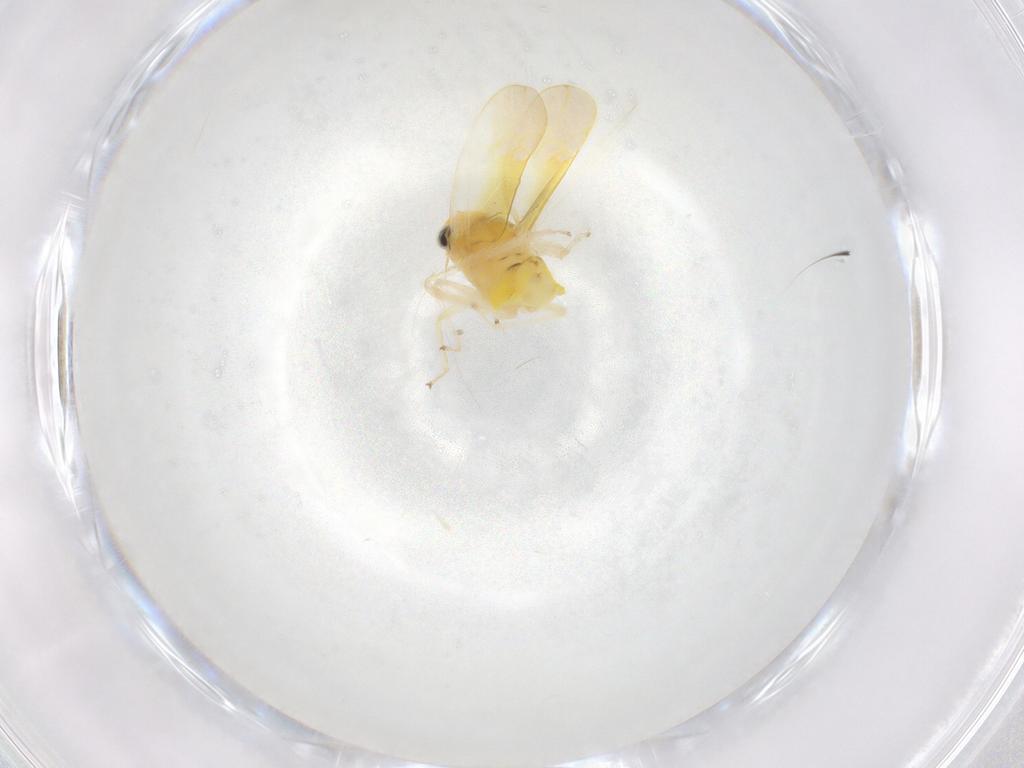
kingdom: Animalia
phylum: Arthropoda
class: Insecta
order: Hemiptera
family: Cicadellidae
